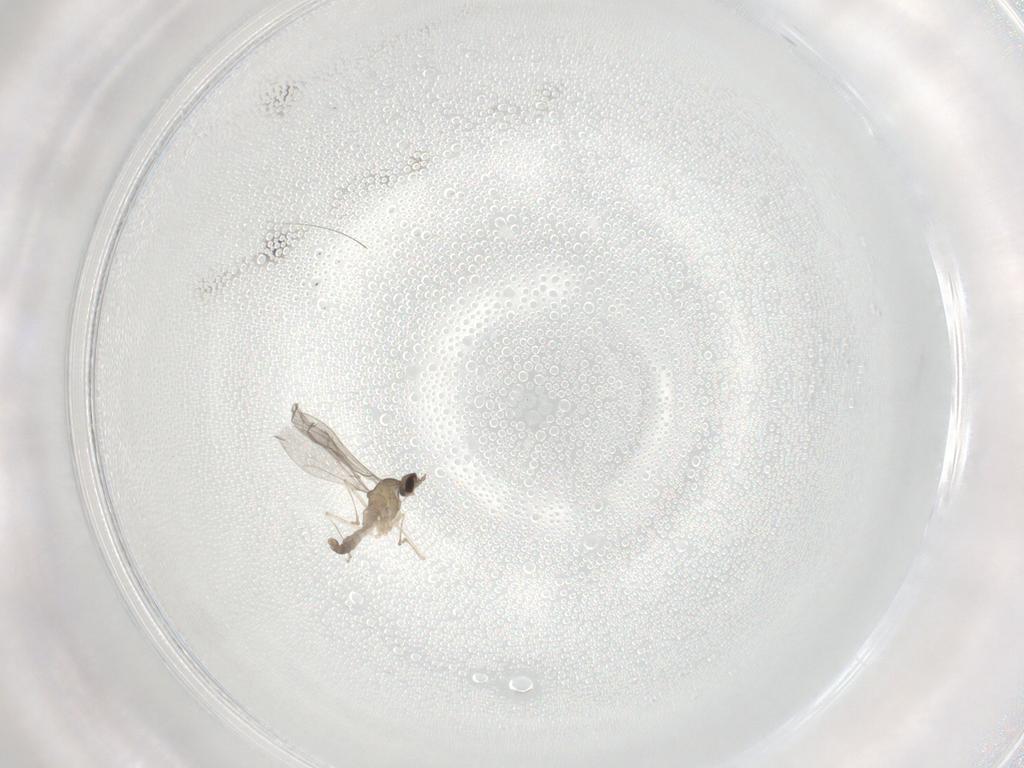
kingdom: Animalia
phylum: Arthropoda
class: Insecta
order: Diptera
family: Cecidomyiidae
